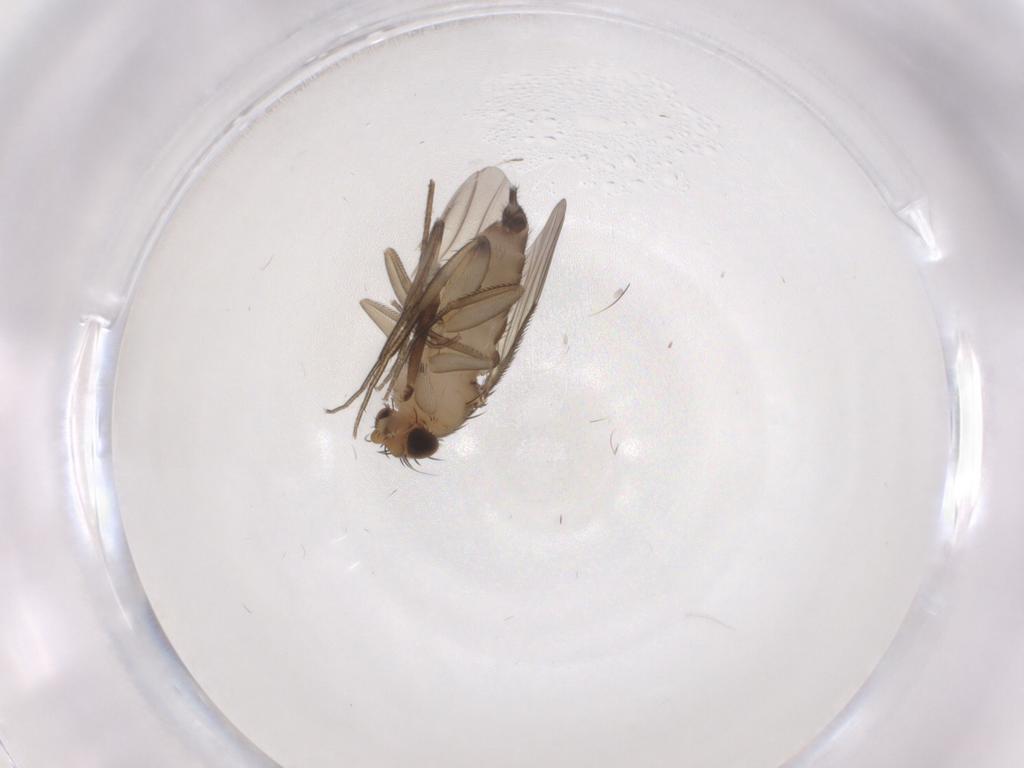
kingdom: Animalia
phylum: Arthropoda
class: Insecta
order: Diptera
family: Phoridae
